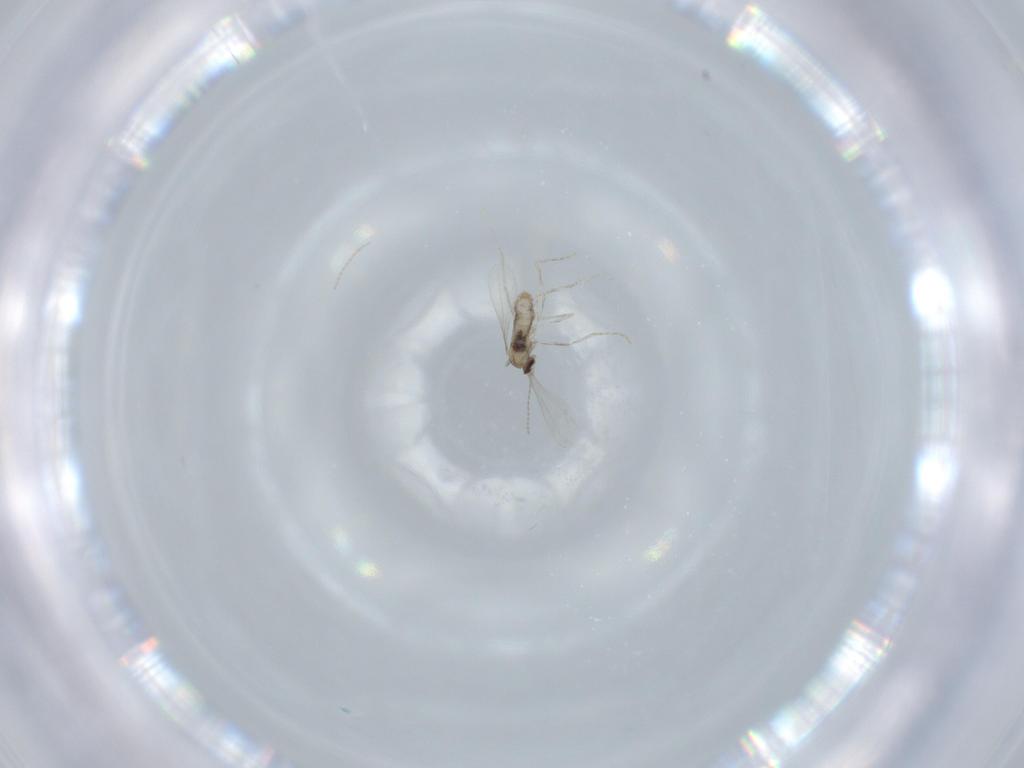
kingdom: Animalia
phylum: Arthropoda
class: Insecta
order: Diptera
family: Cecidomyiidae
